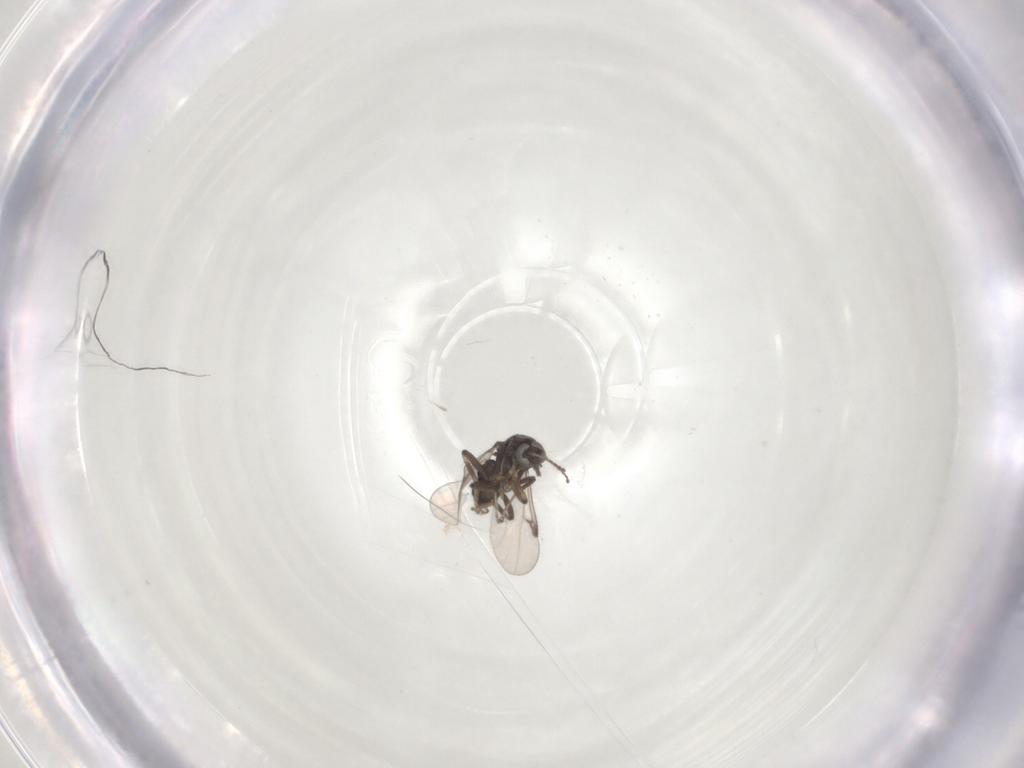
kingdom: Animalia
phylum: Arthropoda
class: Insecta
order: Diptera
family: Ceratopogonidae
